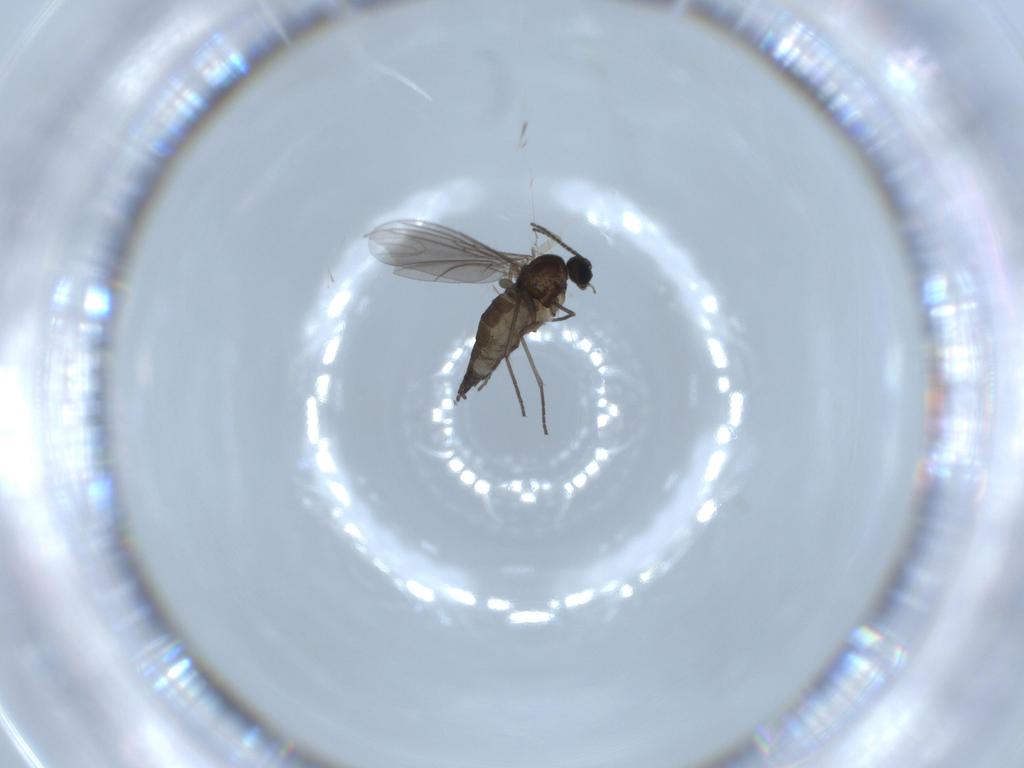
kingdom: Animalia
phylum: Arthropoda
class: Insecta
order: Diptera
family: Sciaridae
